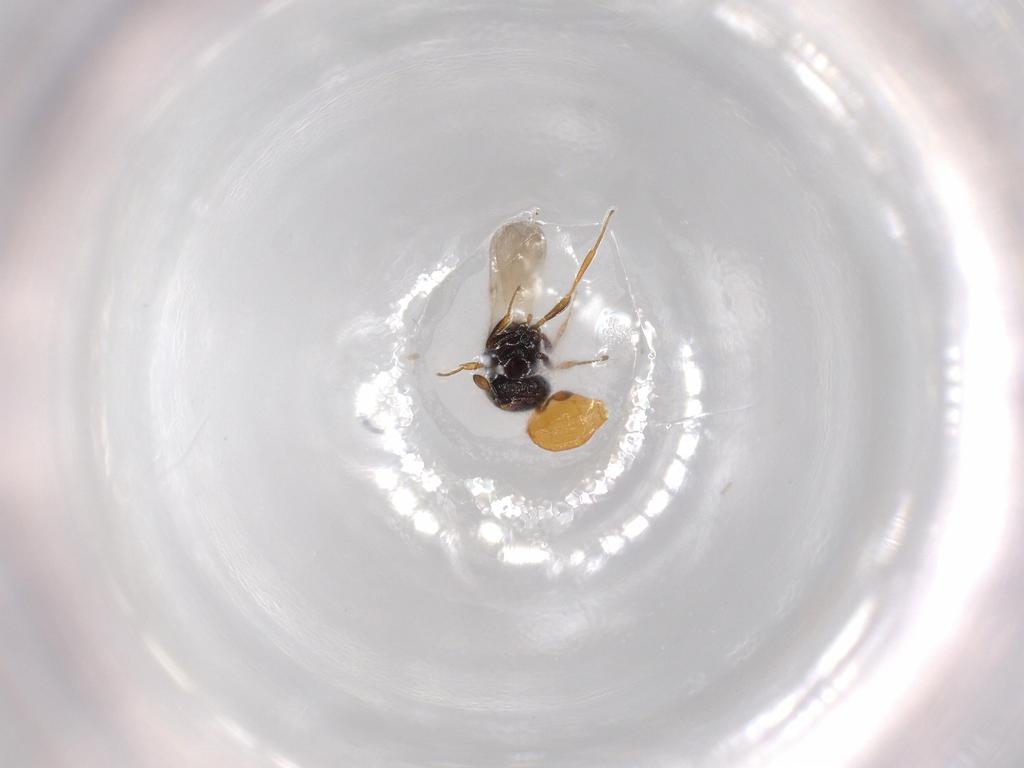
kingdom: Animalia
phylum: Arthropoda
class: Insecta
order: Hymenoptera
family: Scelionidae
